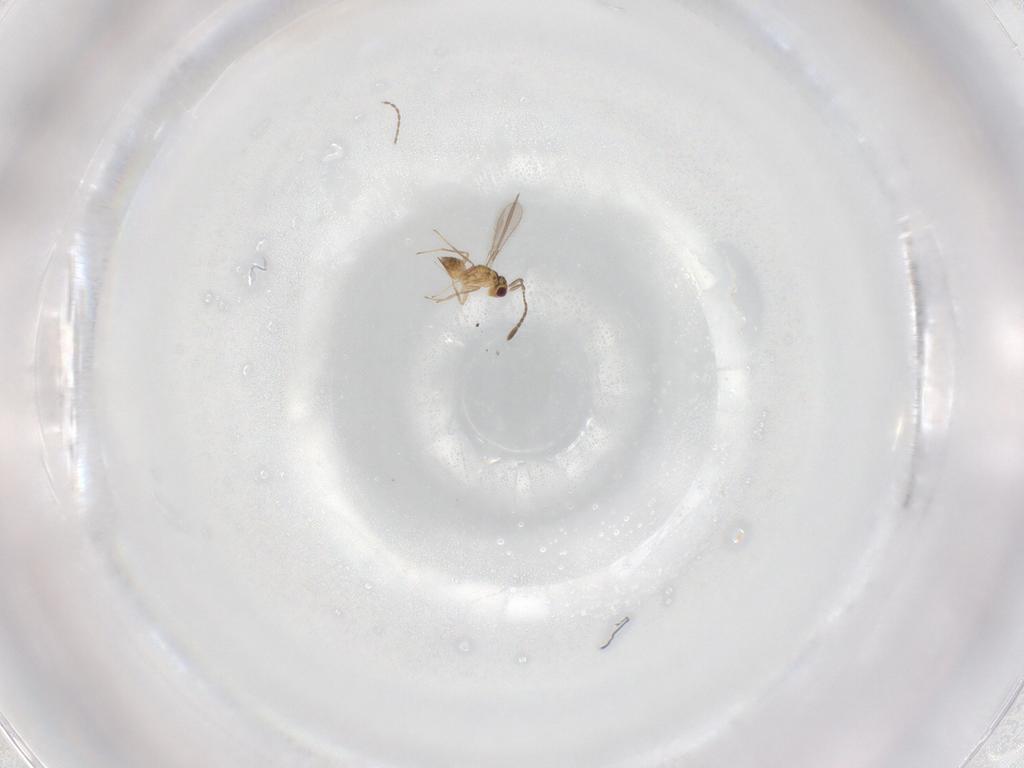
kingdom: Animalia
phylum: Arthropoda
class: Insecta
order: Hymenoptera
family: Mymaridae
